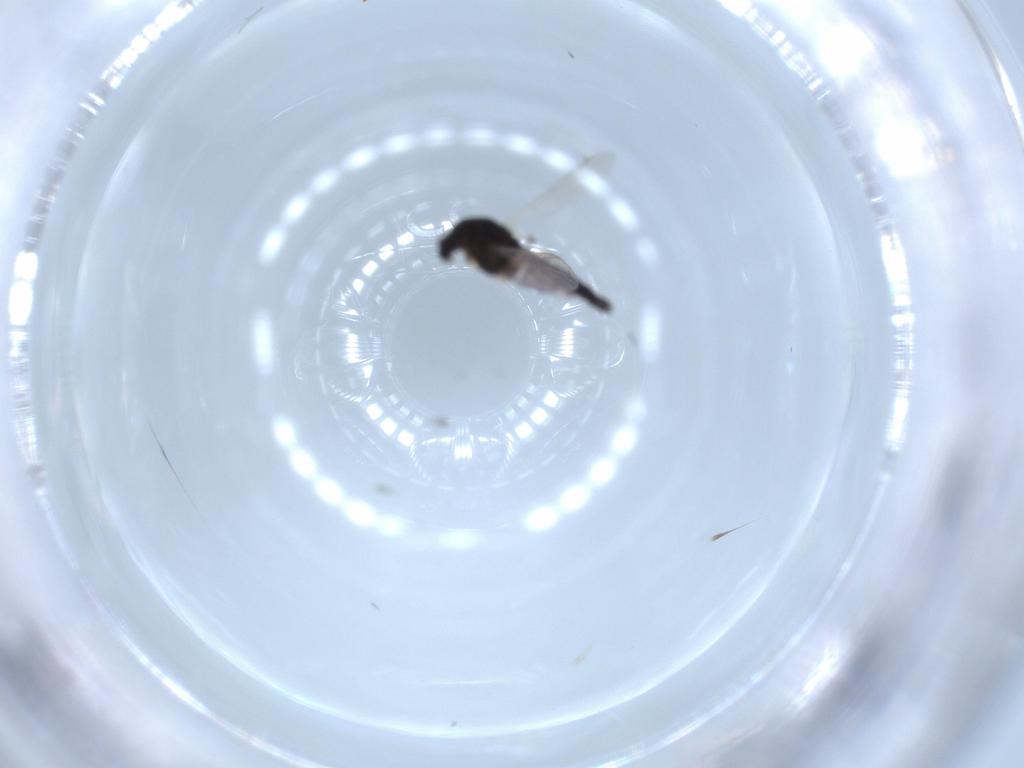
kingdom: Animalia
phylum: Arthropoda
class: Insecta
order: Diptera
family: Chironomidae
